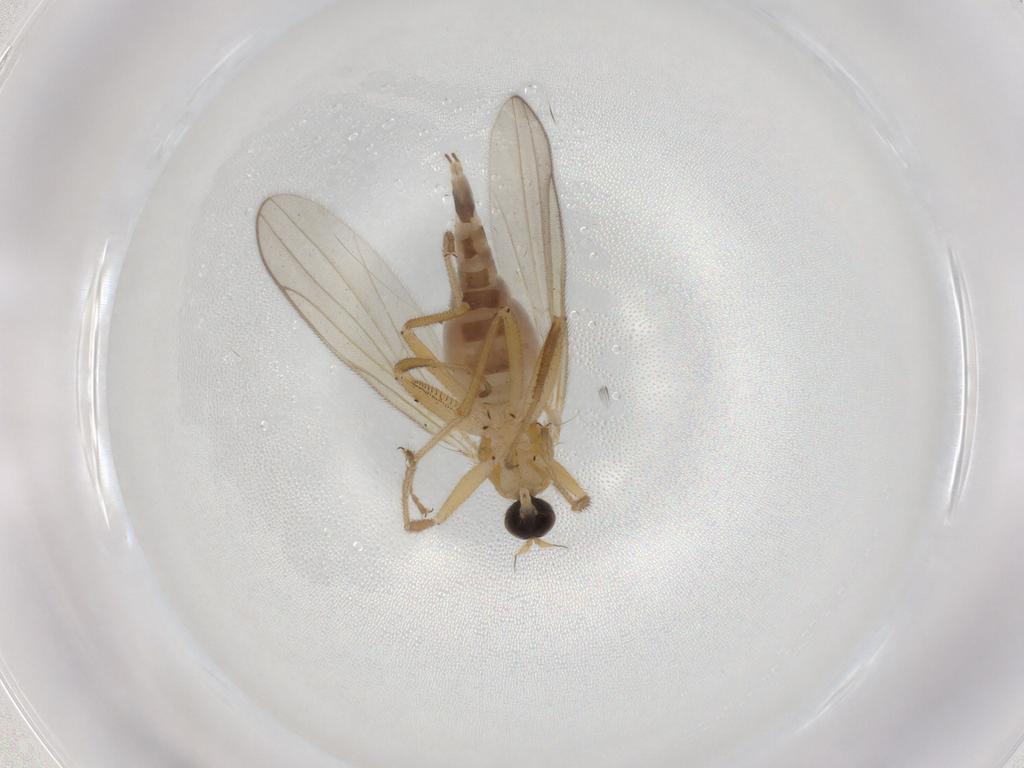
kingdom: Animalia
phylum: Arthropoda
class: Insecta
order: Diptera
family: Hybotidae
